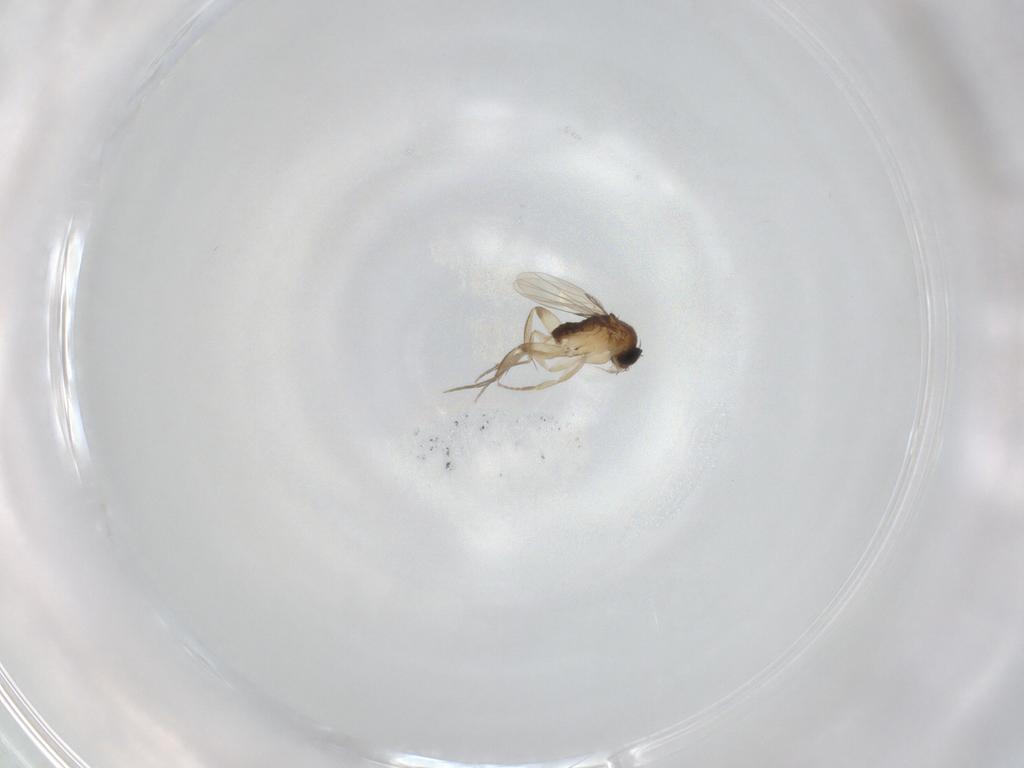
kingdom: Animalia
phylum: Arthropoda
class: Insecta
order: Diptera
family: Phoridae
